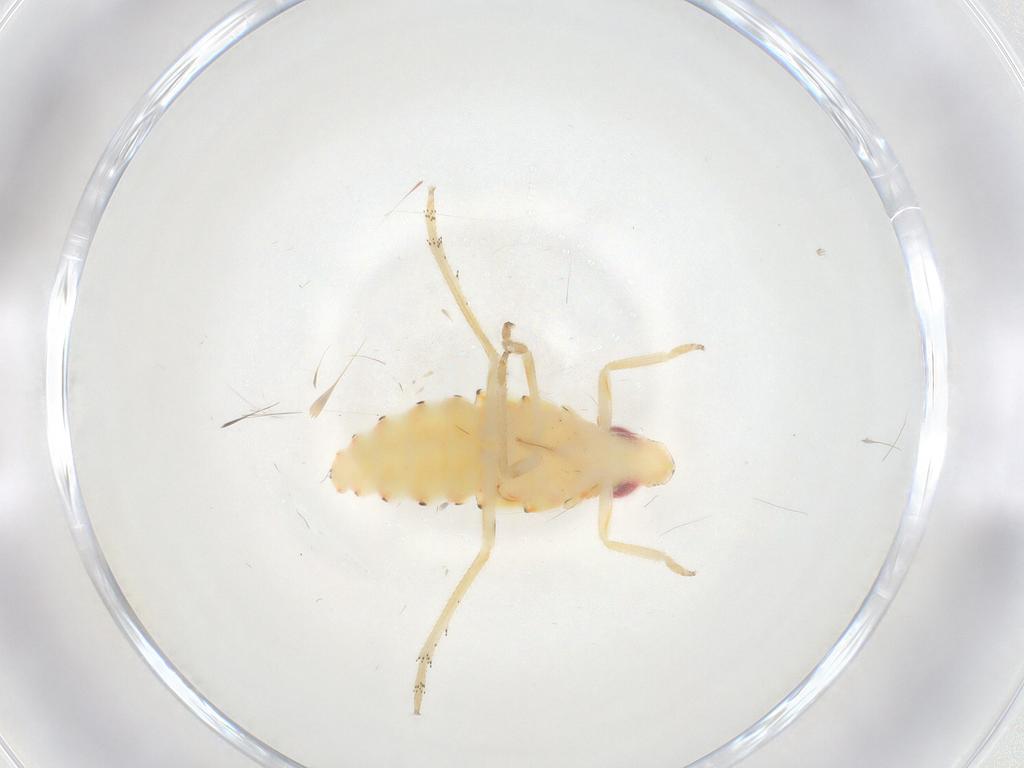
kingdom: Animalia
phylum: Arthropoda
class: Insecta
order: Hemiptera
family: Tropiduchidae
